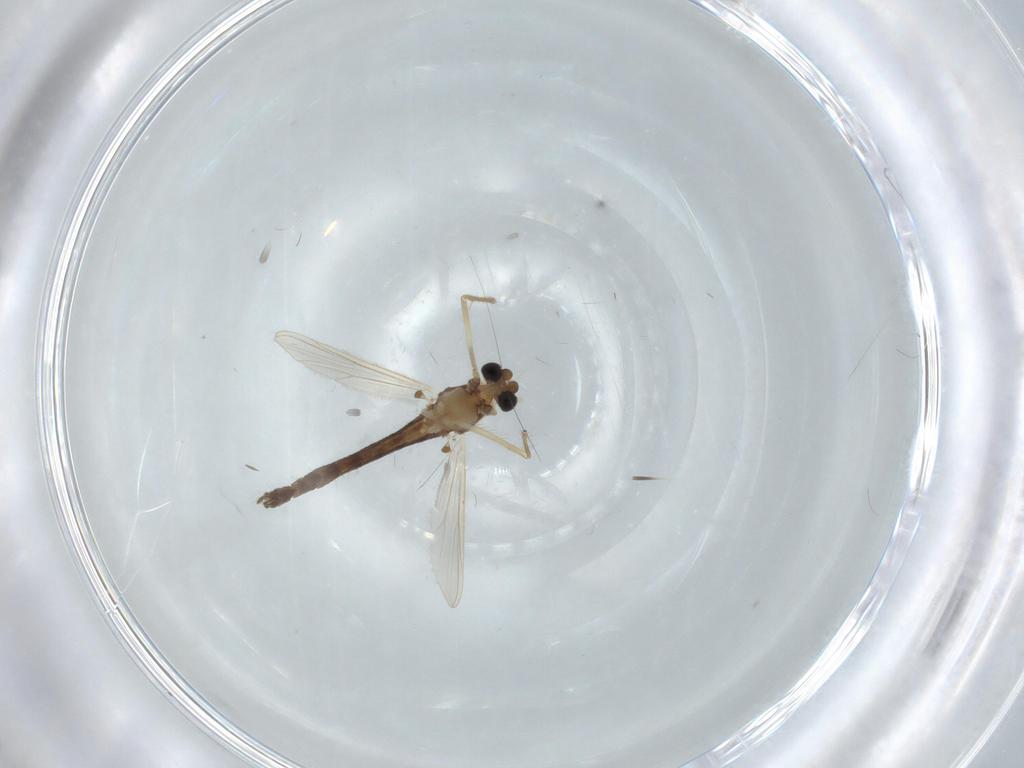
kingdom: Animalia
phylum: Arthropoda
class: Insecta
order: Diptera
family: Chironomidae
